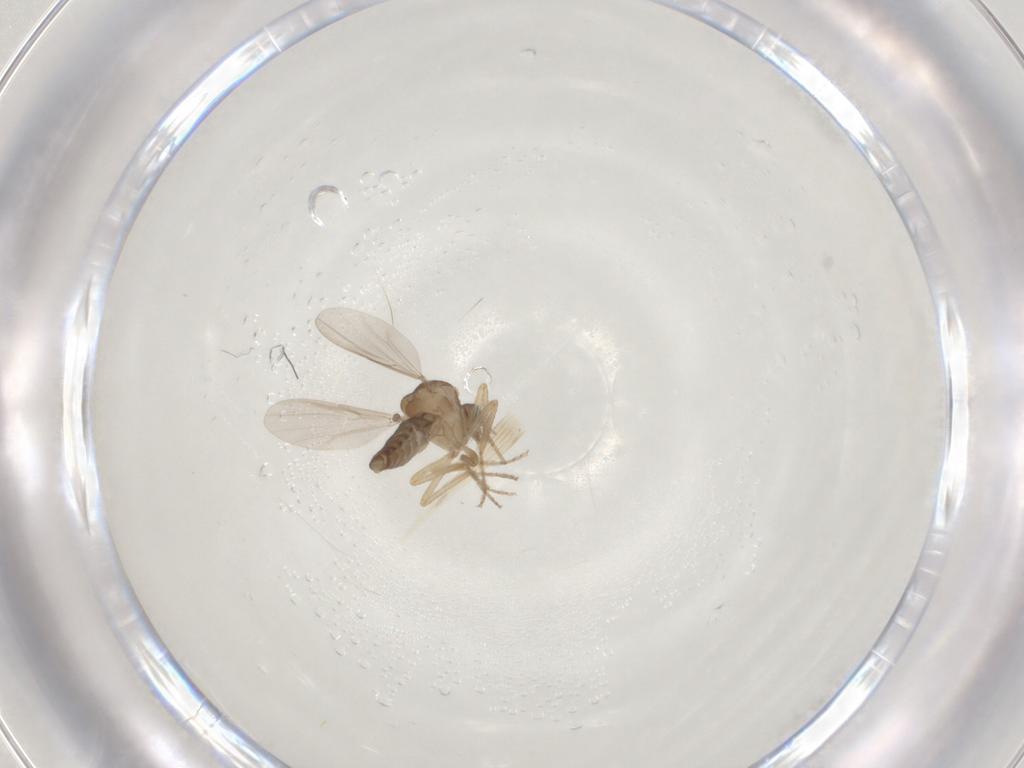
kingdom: Animalia
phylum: Arthropoda
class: Insecta
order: Diptera
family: Ceratopogonidae
